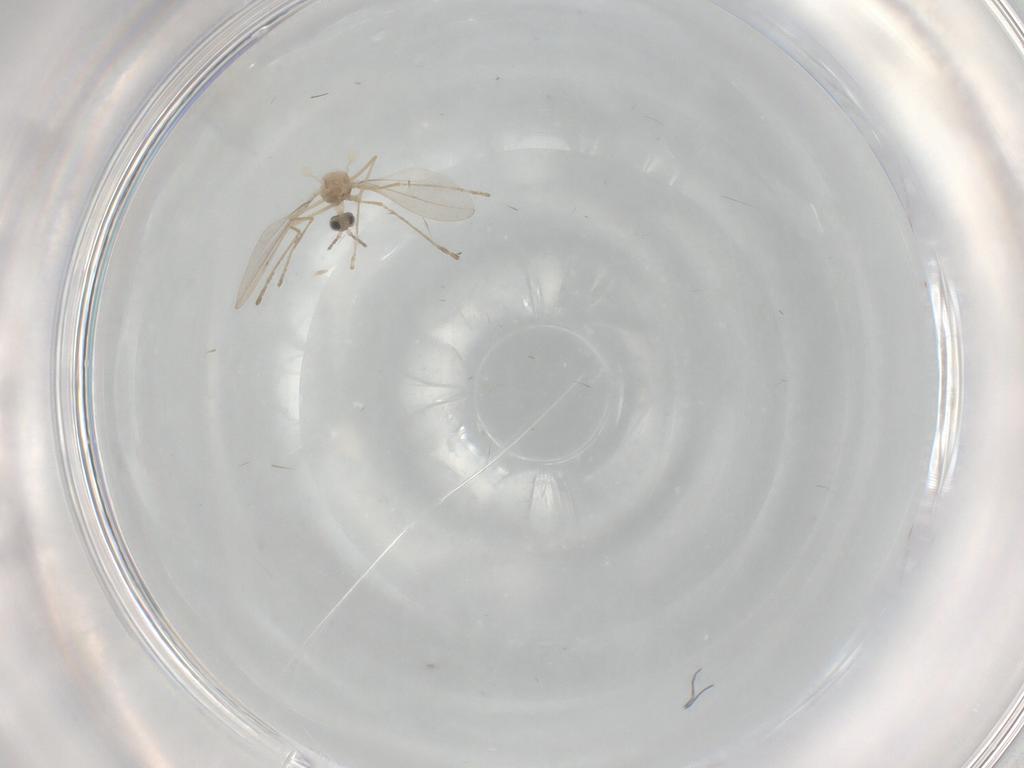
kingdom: Animalia
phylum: Arthropoda
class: Insecta
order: Diptera
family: Cecidomyiidae
